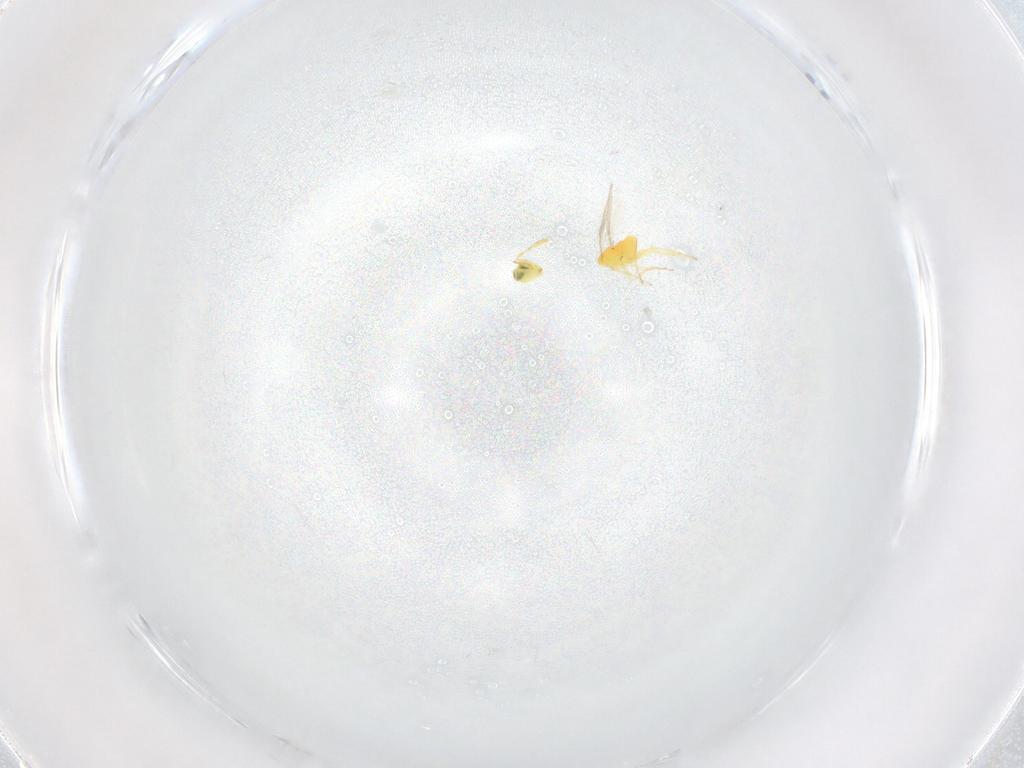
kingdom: Animalia
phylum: Arthropoda
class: Insecta
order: Hymenoptera
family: Aphelinidae
